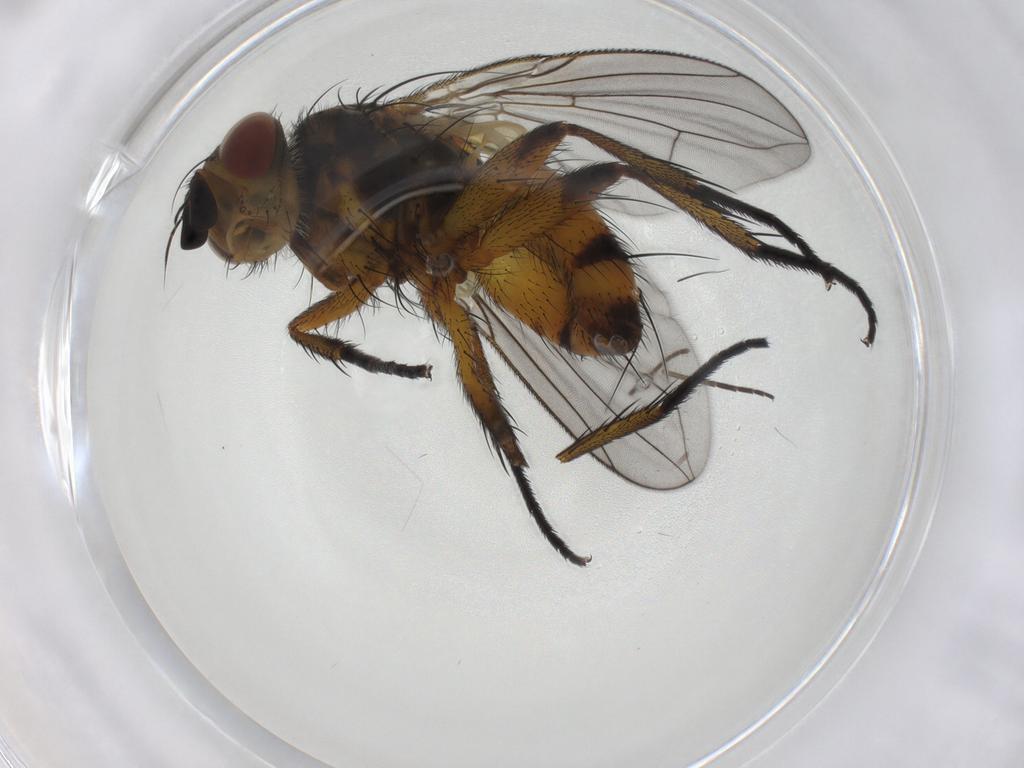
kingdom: Animalia
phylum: Arthropoda
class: Insecta
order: Diptera
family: Tachinidae
